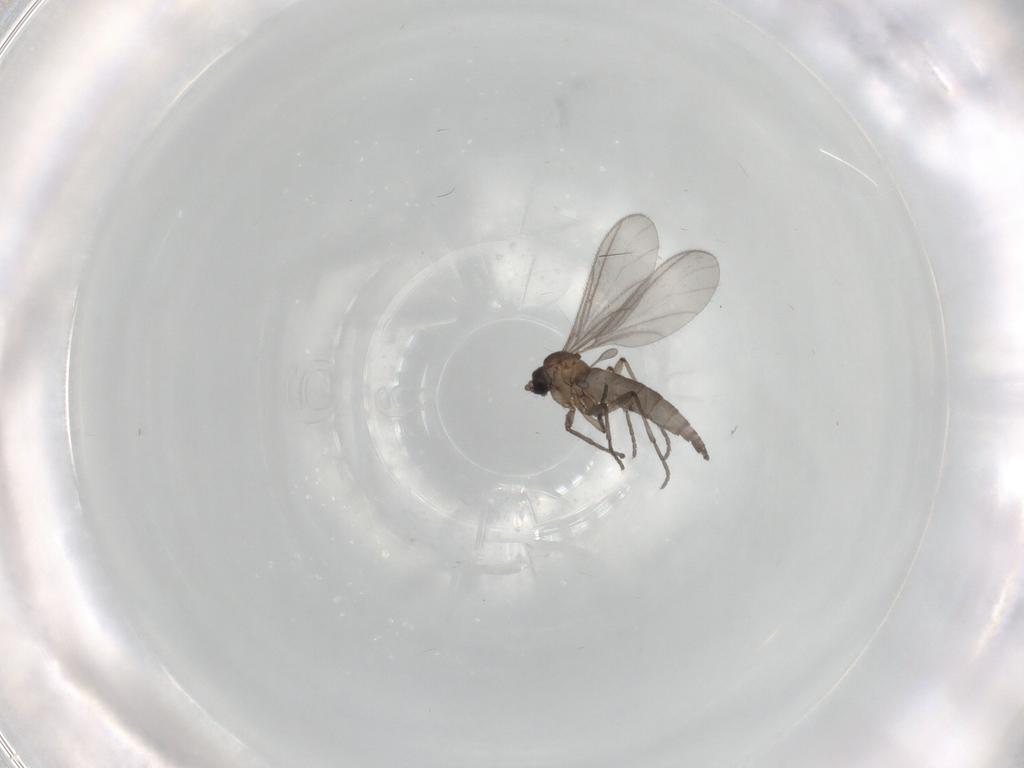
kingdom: Animalia
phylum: Arthropoda
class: Insecta
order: Diptera
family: Sciaridae
